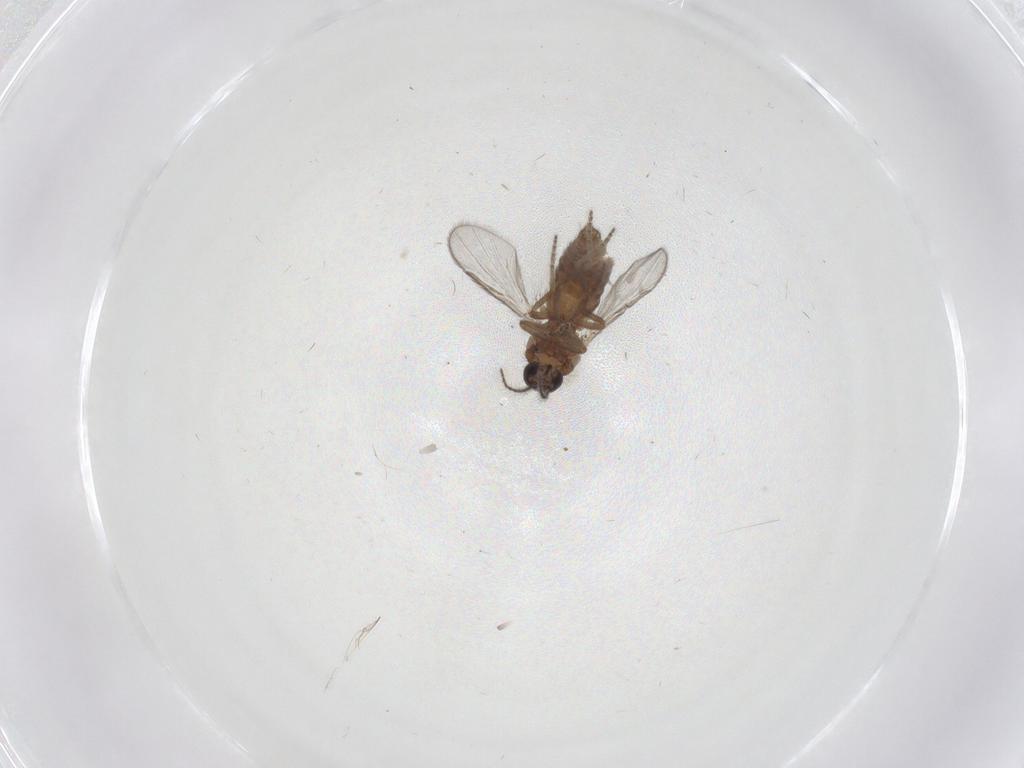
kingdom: Animalia
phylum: Arthropoda
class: Insecta
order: Diptera
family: Ceratopogonidae
